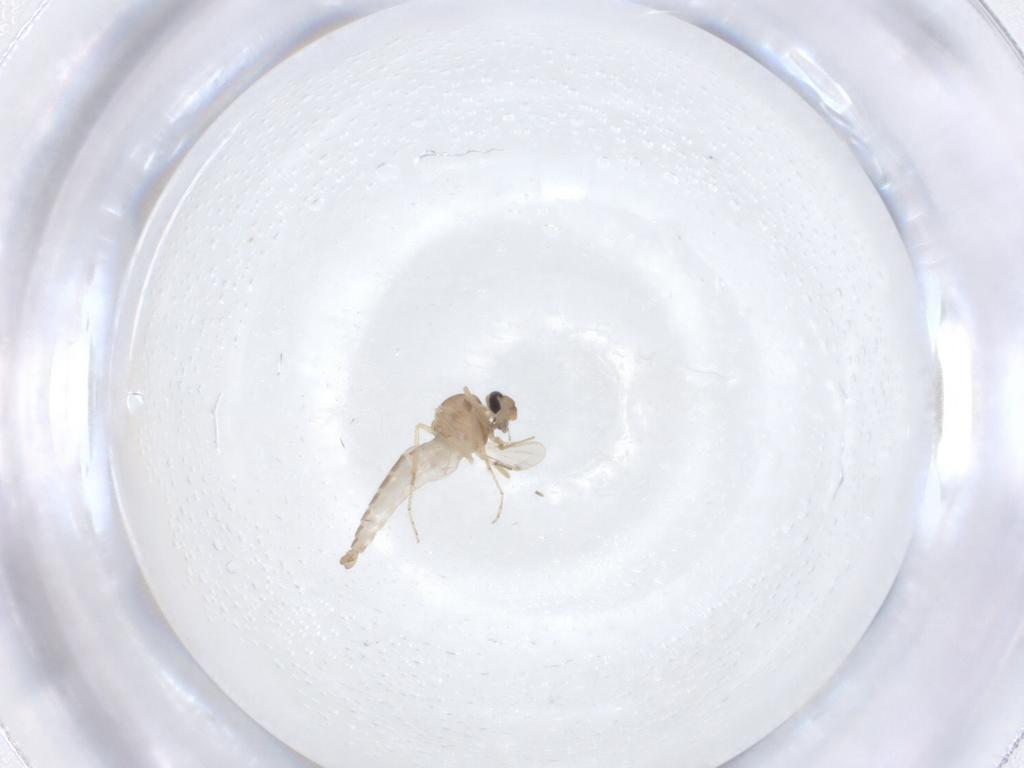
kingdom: Animalia
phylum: Arthropoda
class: Insecta
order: Diptera
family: Ceratopogonidae
